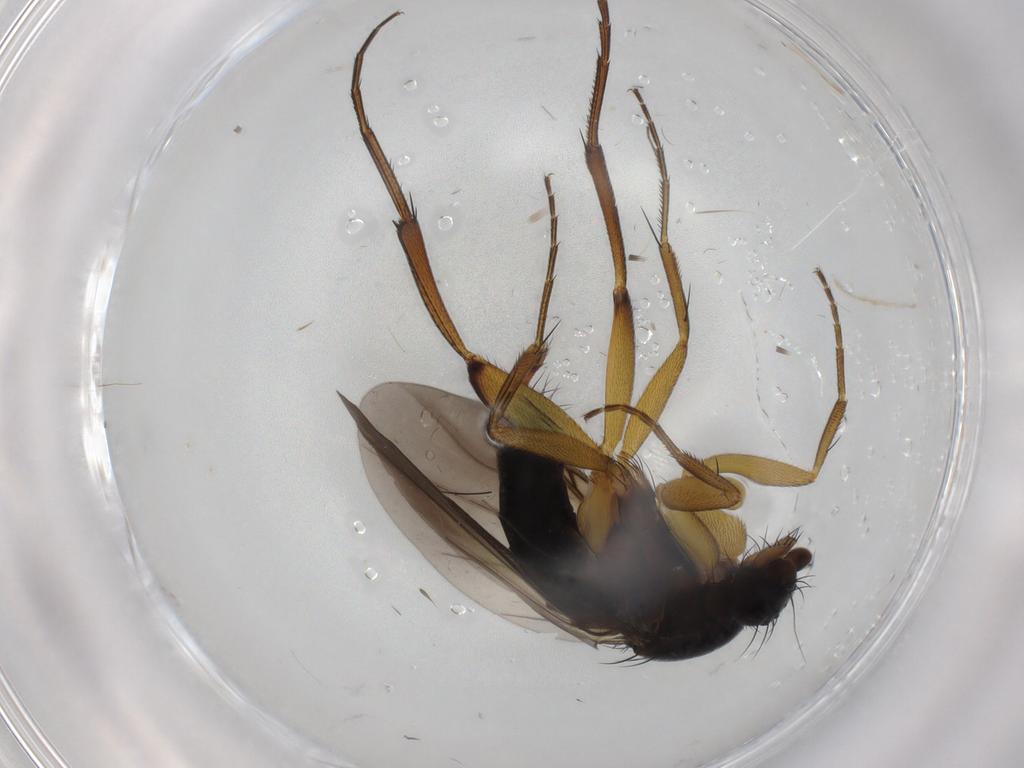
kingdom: Animalia
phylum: Arthropoda
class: Insecta
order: Diptera
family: Phoridae
